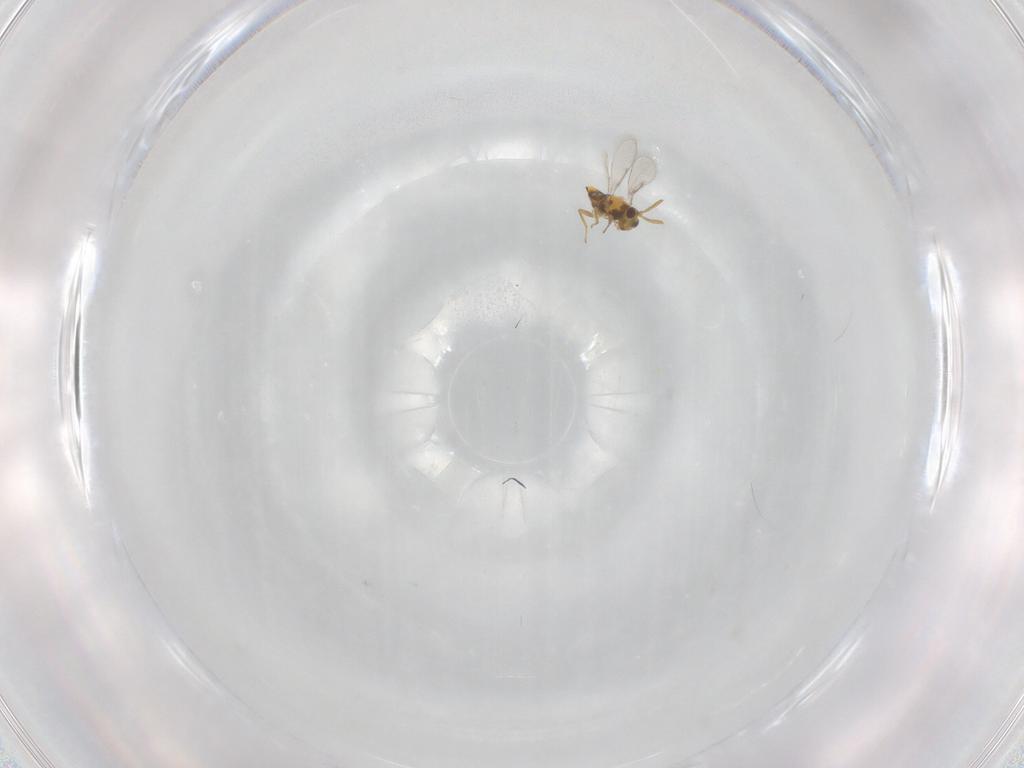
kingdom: Animalia
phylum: Arthropoda
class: Insecta
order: Hymenoptera
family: Aphelinidae
